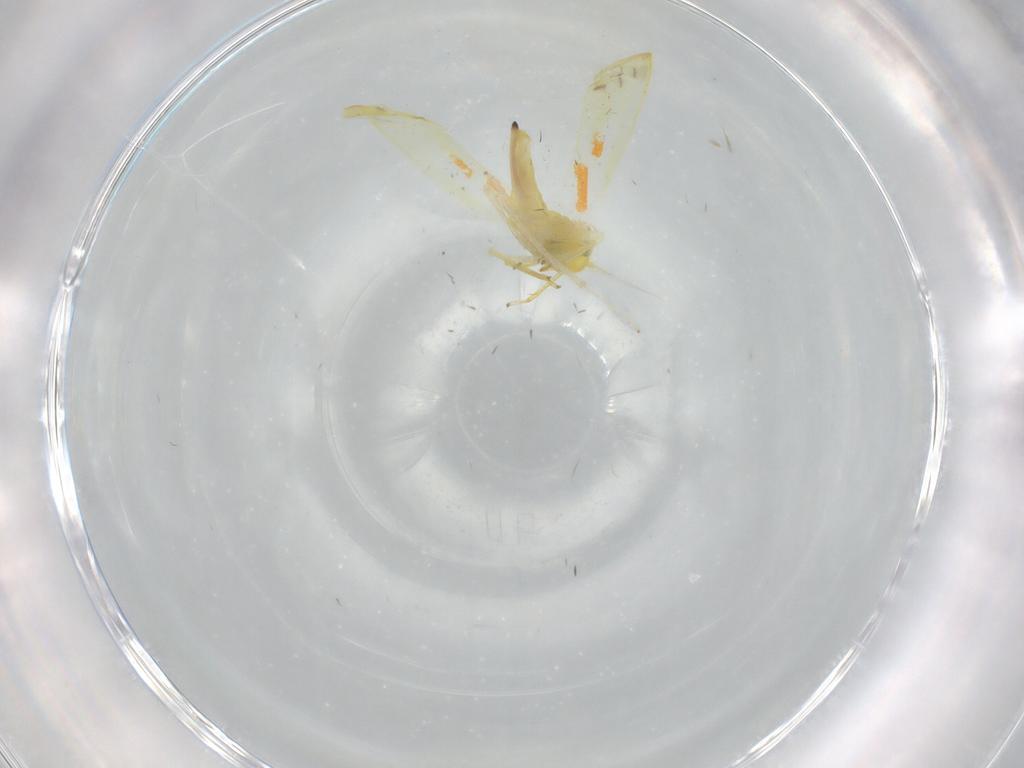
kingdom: Animalia
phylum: Arthropoda
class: Insecta
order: Hemiptera
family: Cicadellidae
